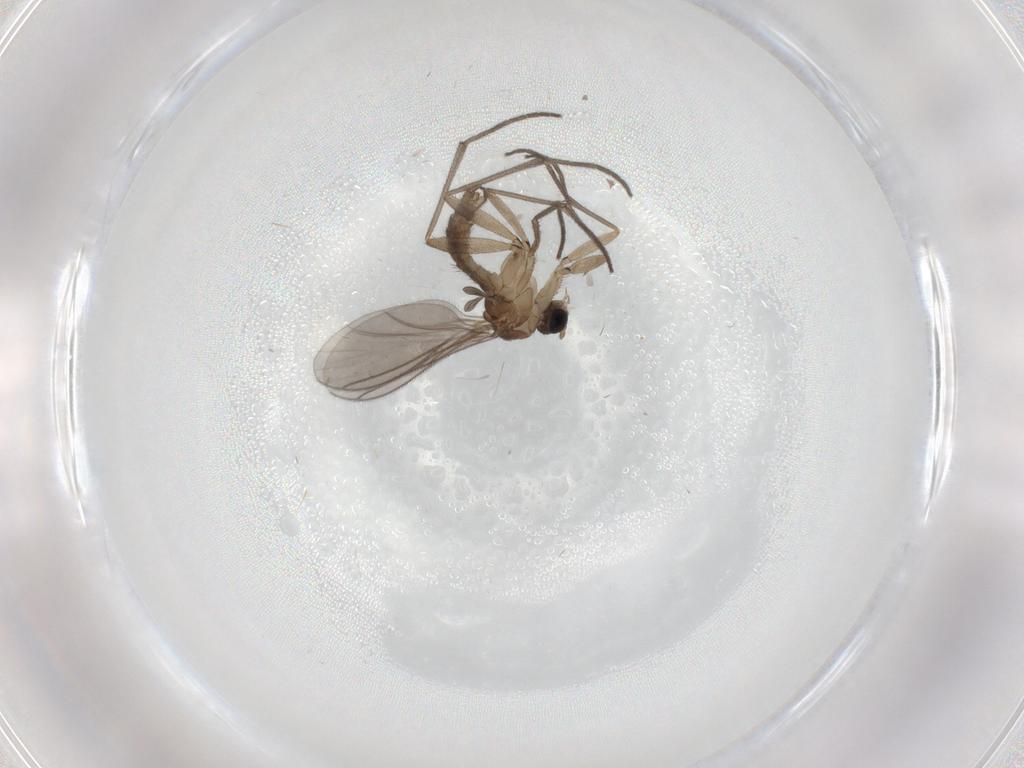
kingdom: Animalia
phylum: Arthropoda
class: Insecta
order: Diptera
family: Sciaridae
